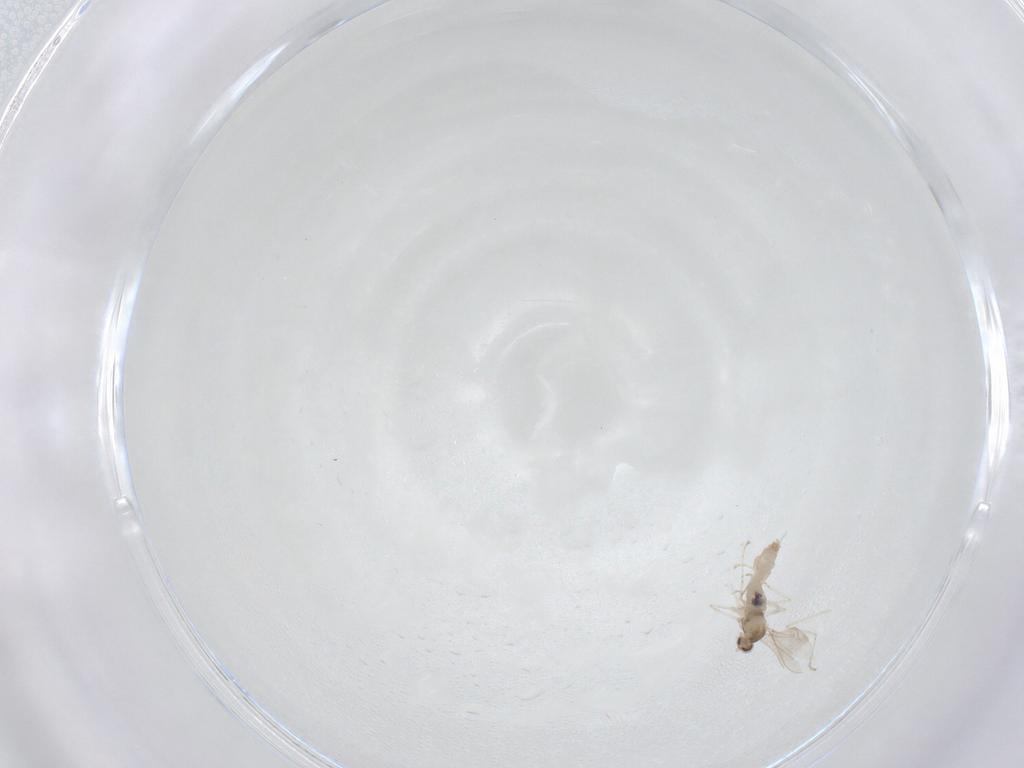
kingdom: Animalia
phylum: Arthropoda
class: Insecta
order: Diptera
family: Cecidomyiidae
